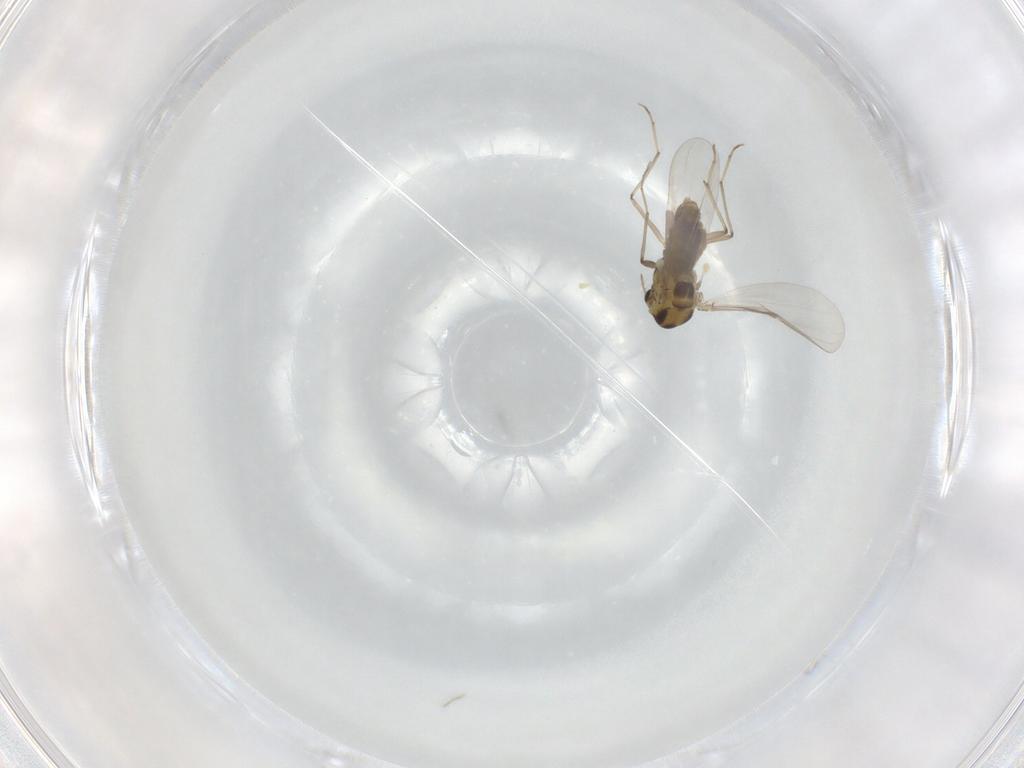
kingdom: Animalia
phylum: Arthropoda
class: Insecta
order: Diptera
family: Chironomidae
